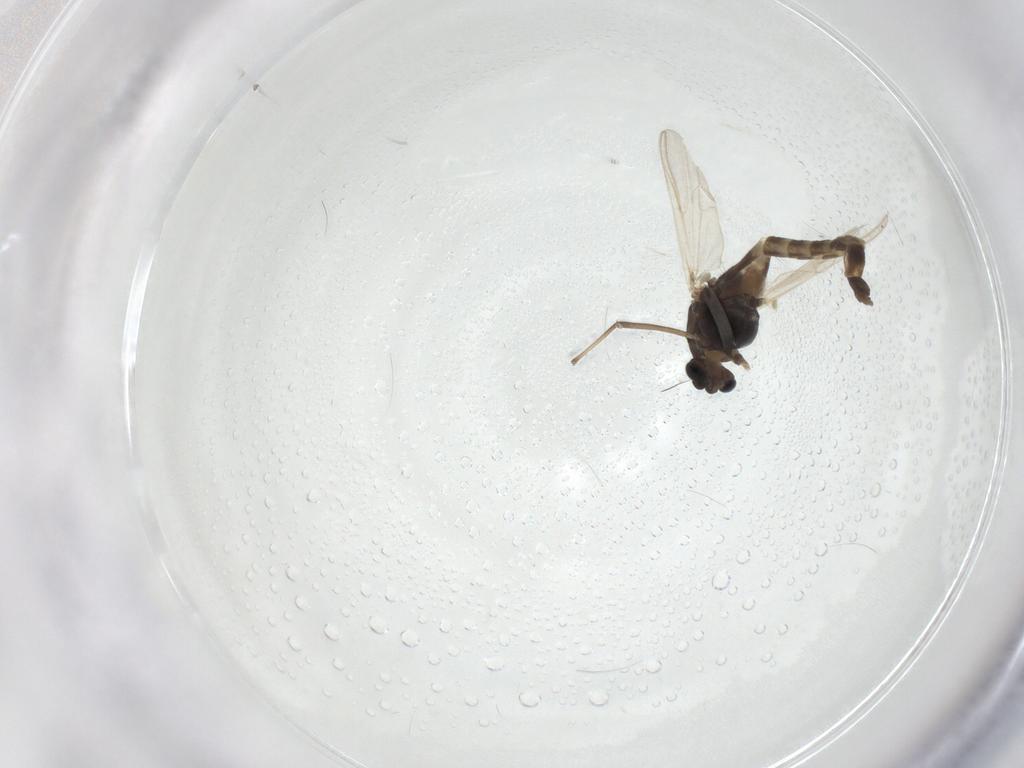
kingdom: Animalia
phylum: Arthropoda
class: Insecta
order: Diptera
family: Chironomidae
